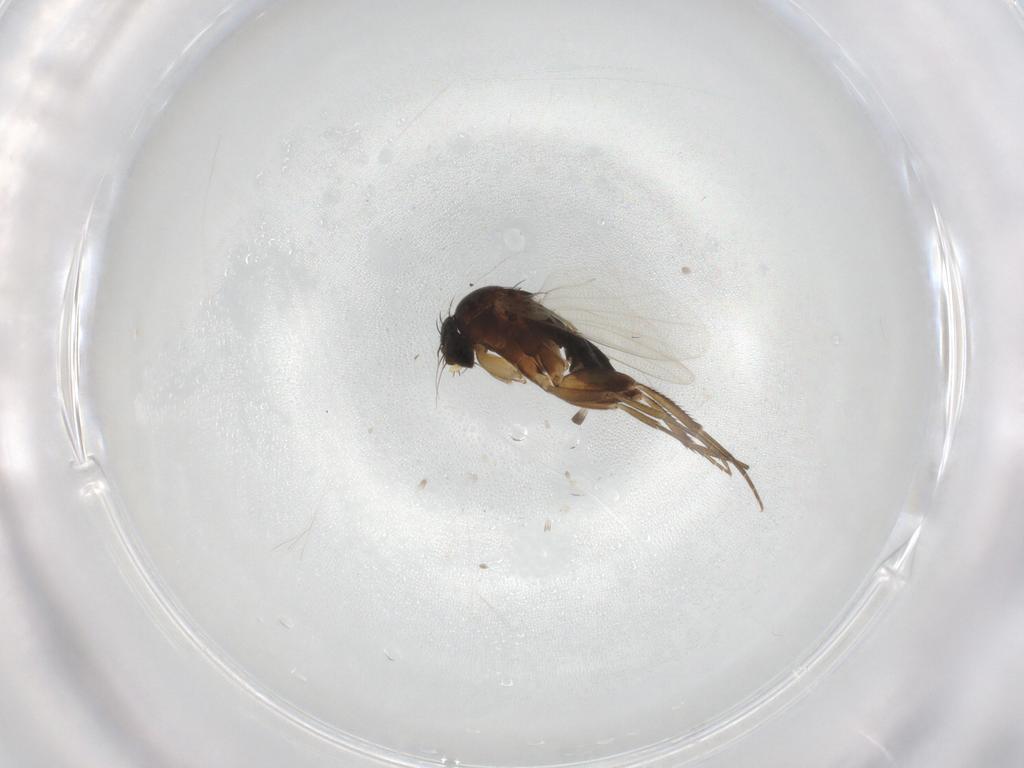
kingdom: Animalia
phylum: Arthropoda
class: Insecta
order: Diptera
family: Phoridae
